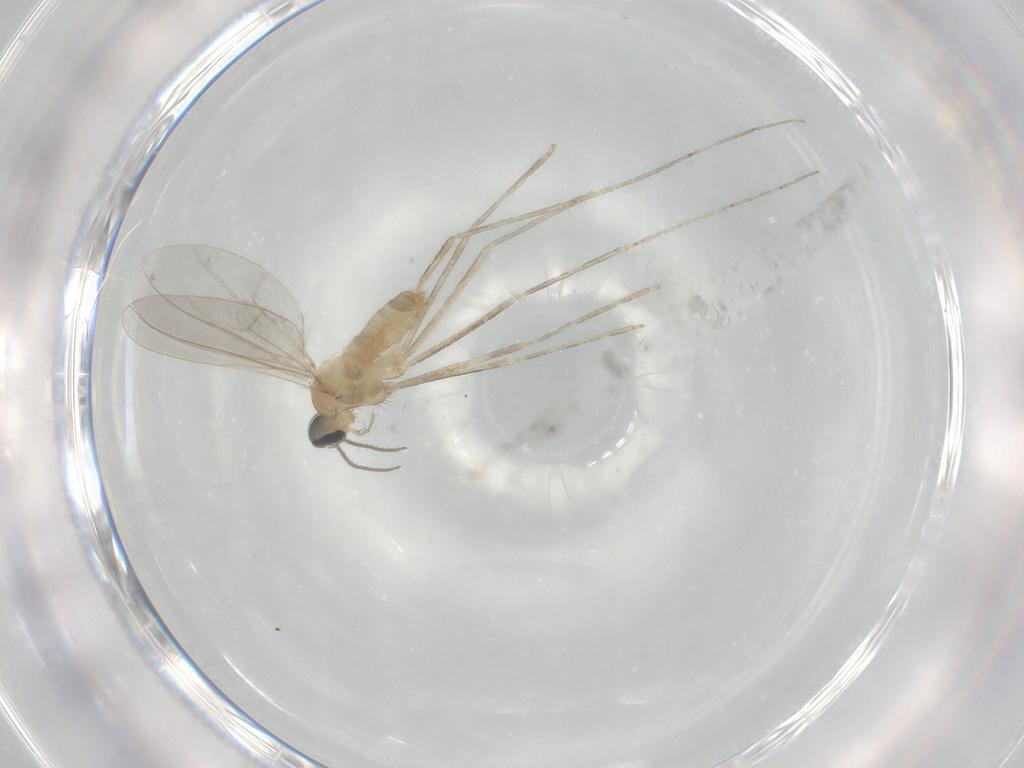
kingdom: Animalia
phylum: Arthropoda
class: Insecta
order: Diptera
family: Cecidomyiidae
